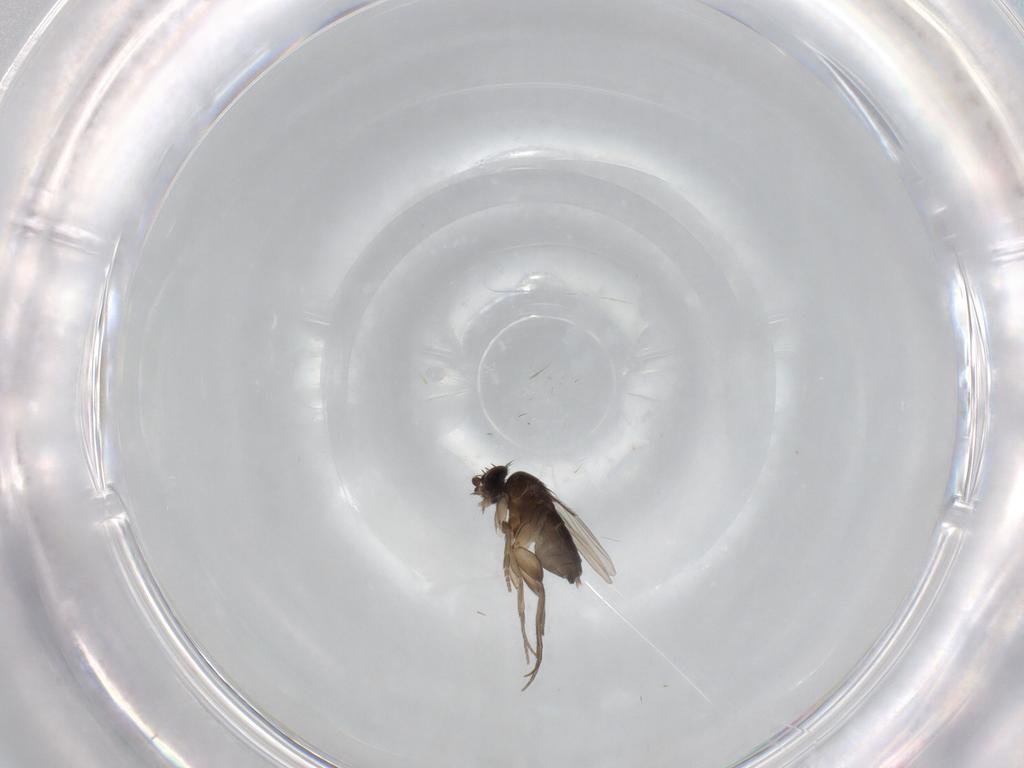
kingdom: Animalia
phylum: Arthropoda
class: Insecta
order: Diptera
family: Phoridae
